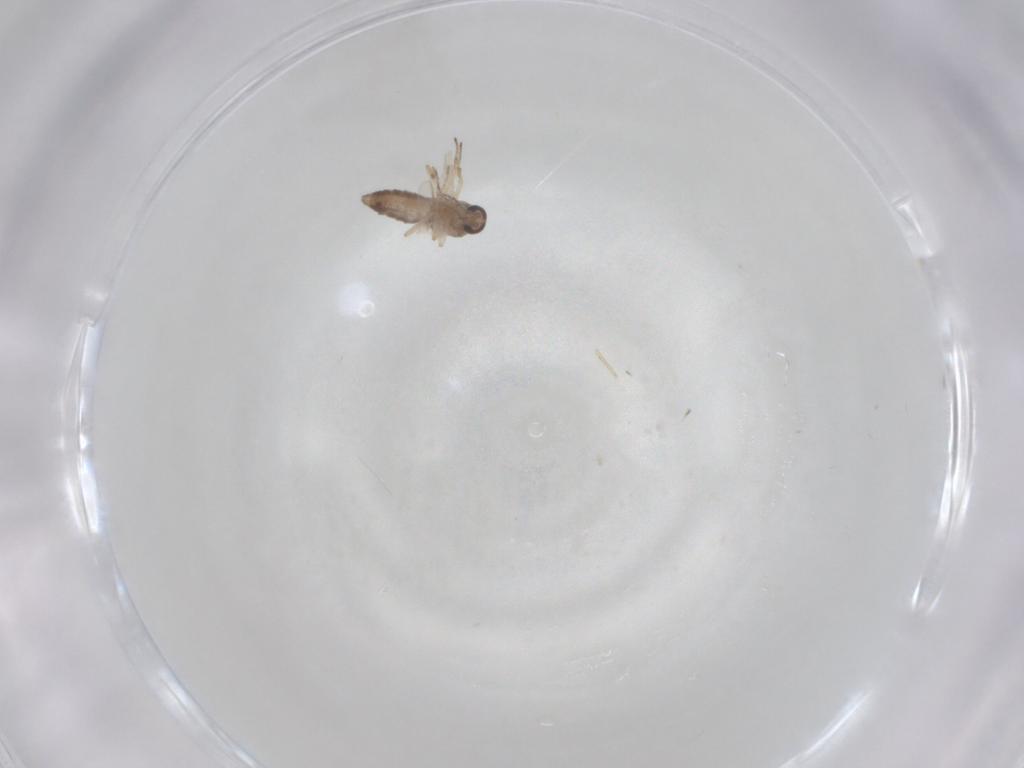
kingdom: Animalia
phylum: Arthropoda
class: Insecta
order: Diptera
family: Ceratopogonidae
